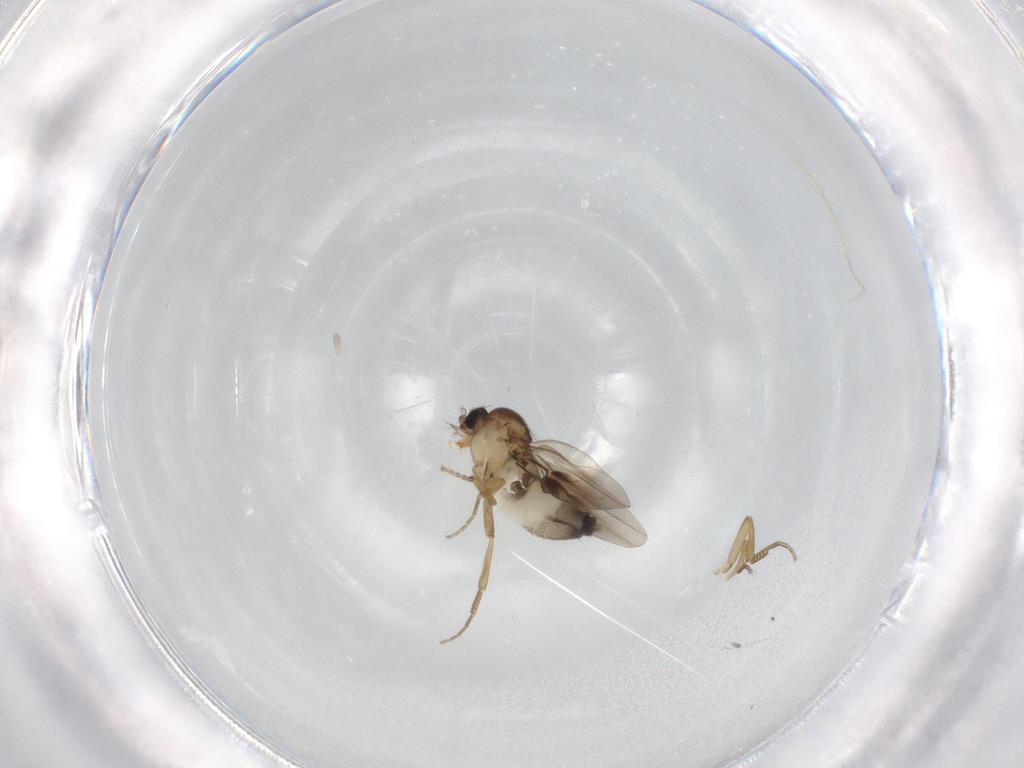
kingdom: Animalia
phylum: Arthropoda
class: Insecta
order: Diptera
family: Phoridae
